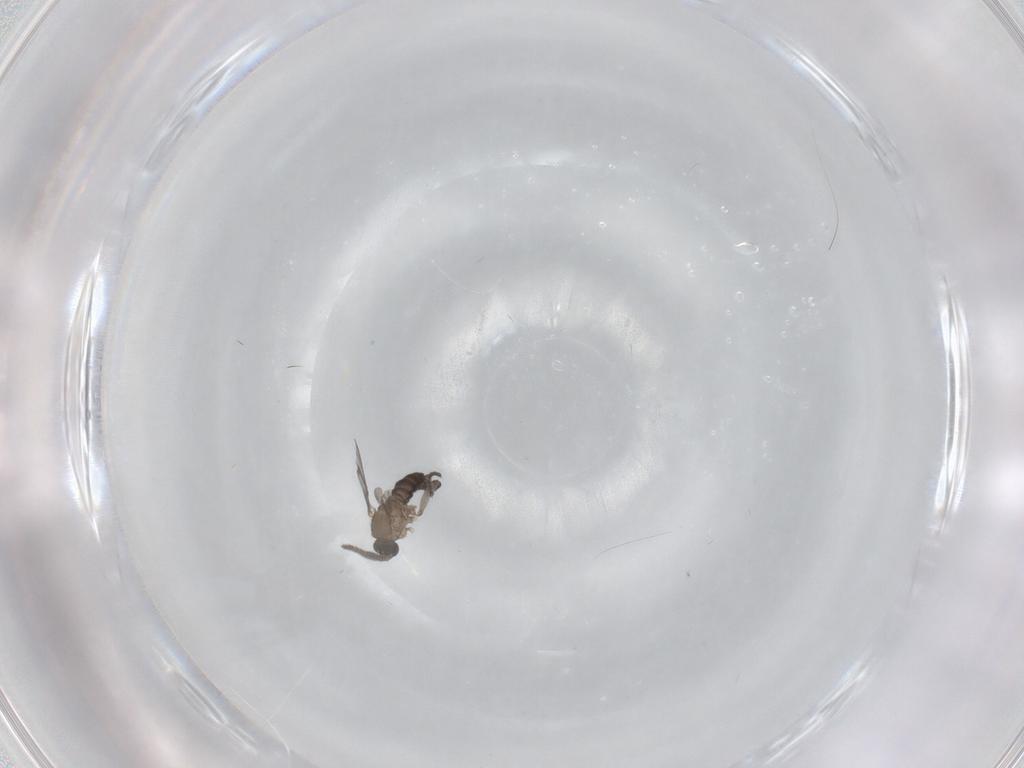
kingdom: Animalia
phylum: Arthropoda
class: Insecta
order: Diptera
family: Sciaridae
